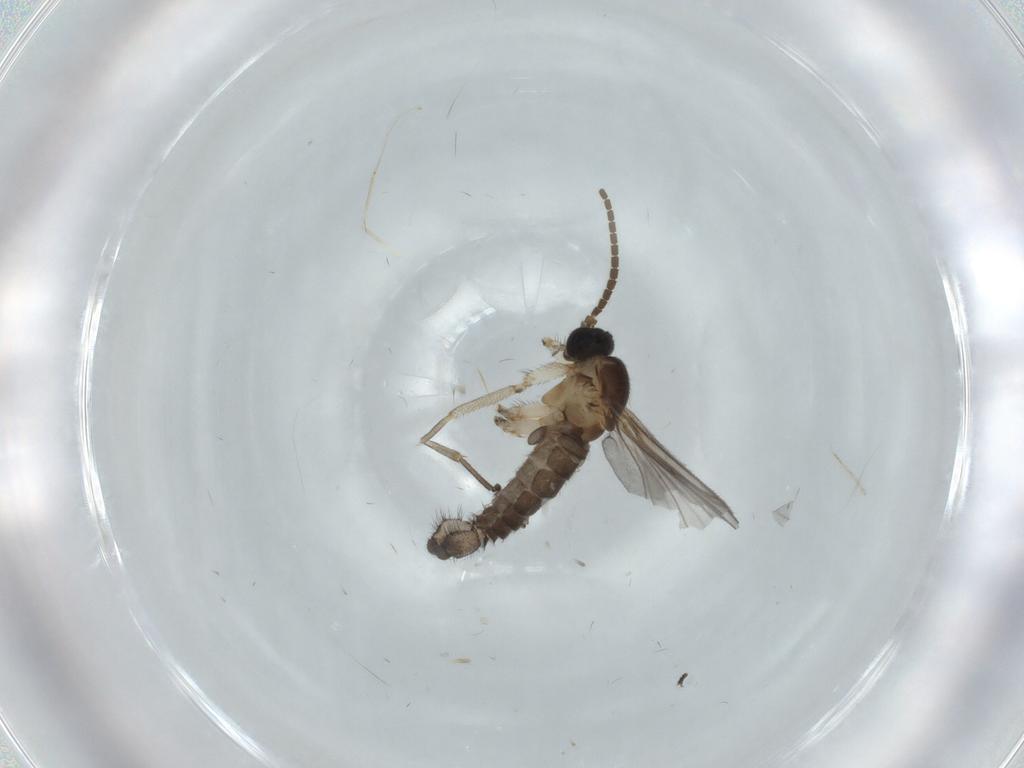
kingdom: Animalia
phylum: Arthropoda
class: Insecta
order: Diptera
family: Sciaridae
